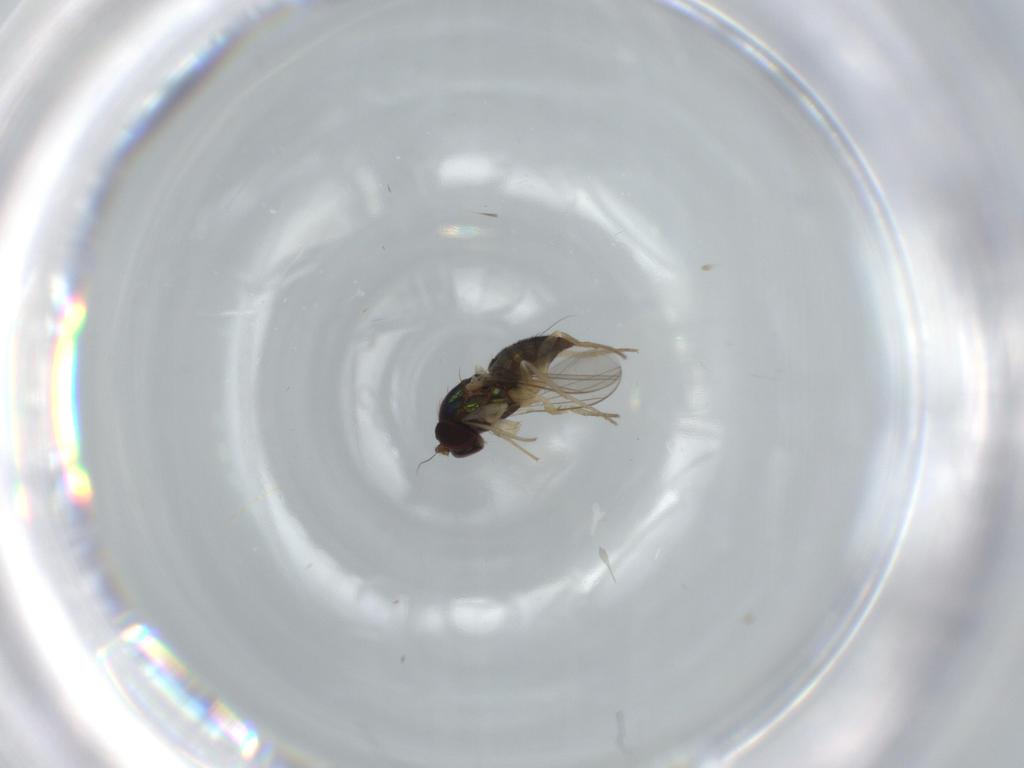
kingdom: Animalia
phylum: Arthropoda
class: Insecta
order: Diptera
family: Dolichopodidae
